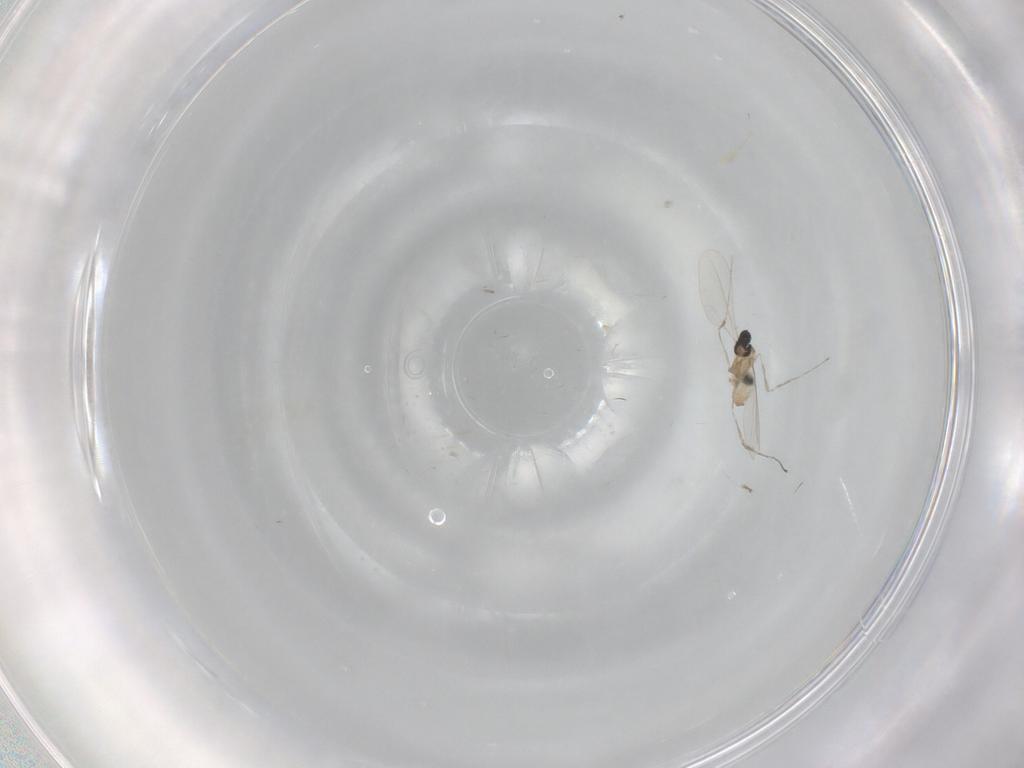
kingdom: Animalia
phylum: Arthropoda
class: Insecta
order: Diptera
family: Cecidomyiidae
